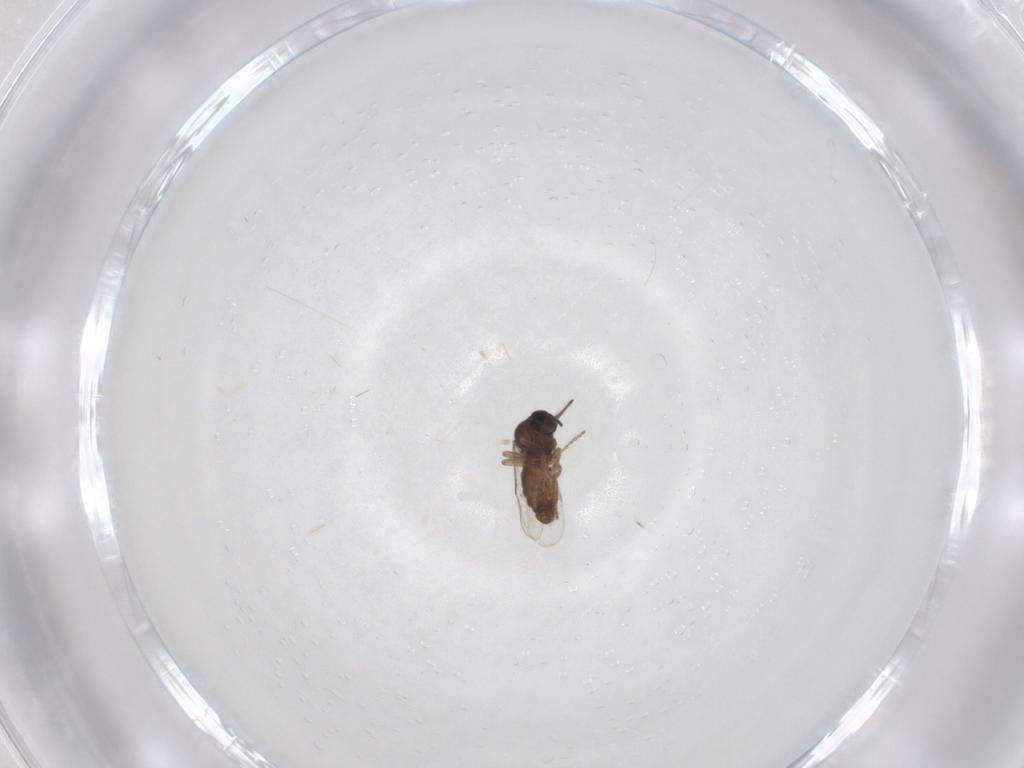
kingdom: Animalia
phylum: Arthropoda
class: Insecta
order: Diptera
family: Ceratopogonidae
